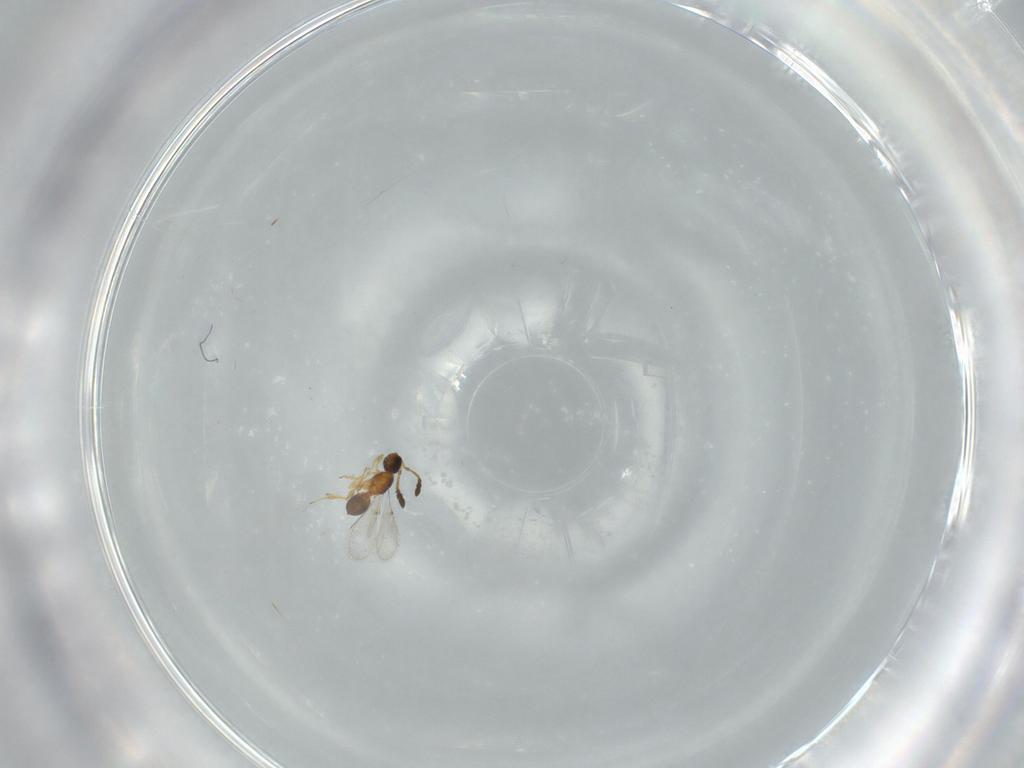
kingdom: Animalia
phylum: Arthropoda
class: Insecta
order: Hymenoptera
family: Diapriidae
